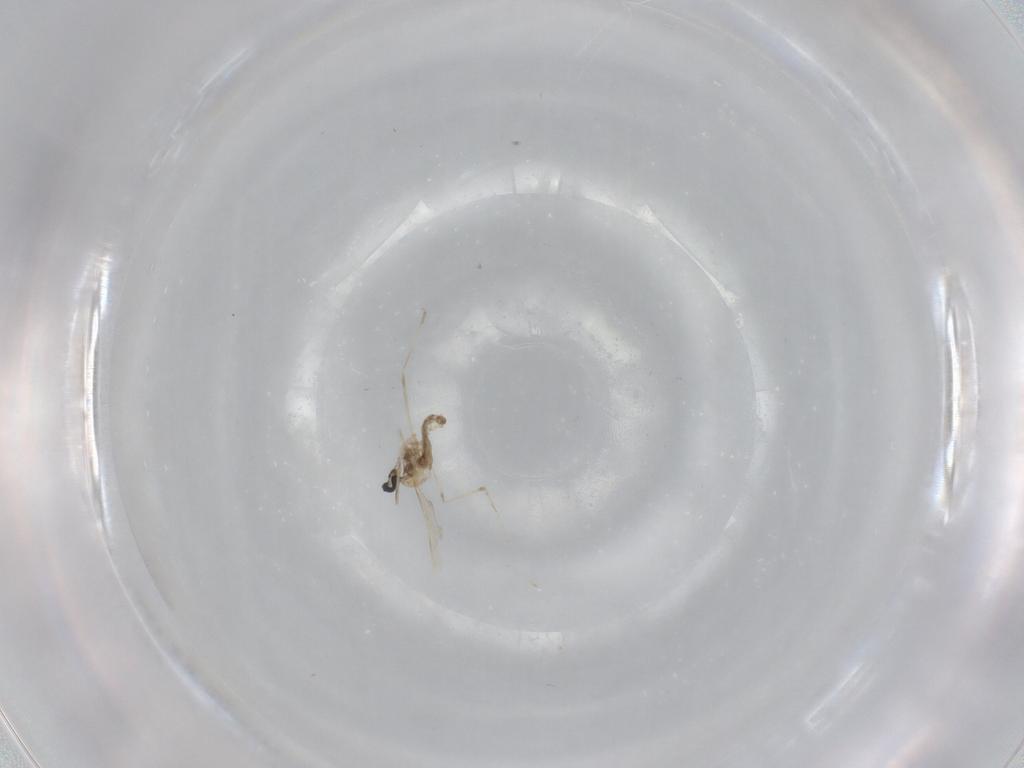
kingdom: Animalia
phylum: Arthropoda
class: Insecta
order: Diptera
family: Cecidomyiidae
